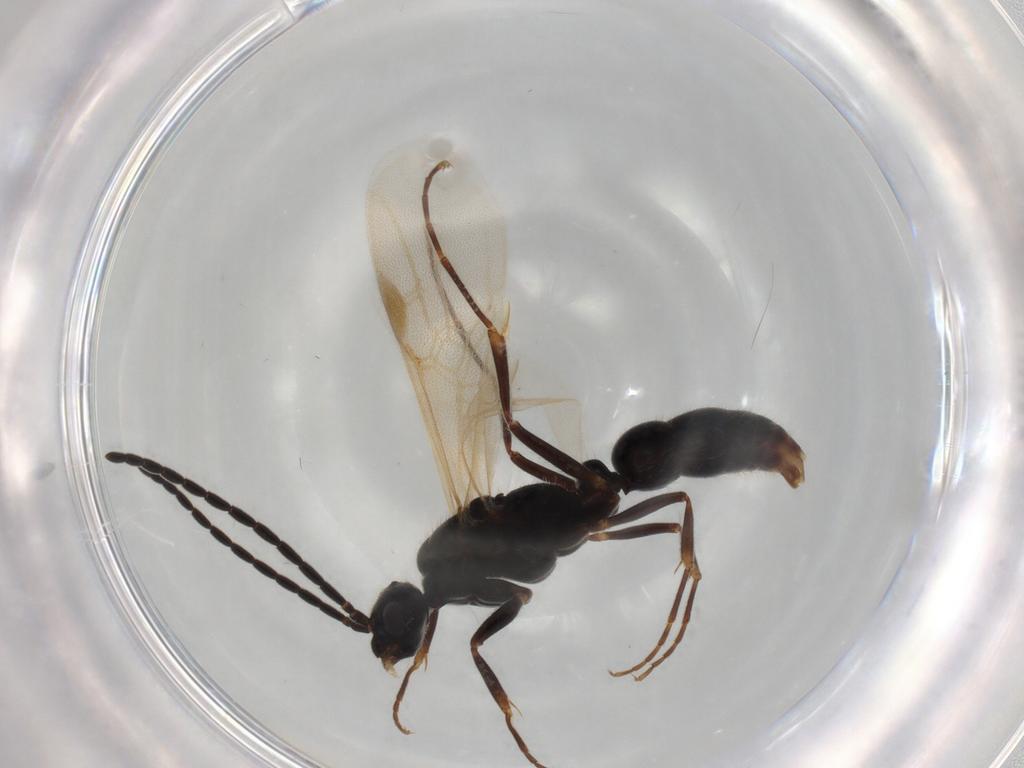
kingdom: Animalia
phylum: Arthropoda
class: Insecta
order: Hymenoptera
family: Formicidae
